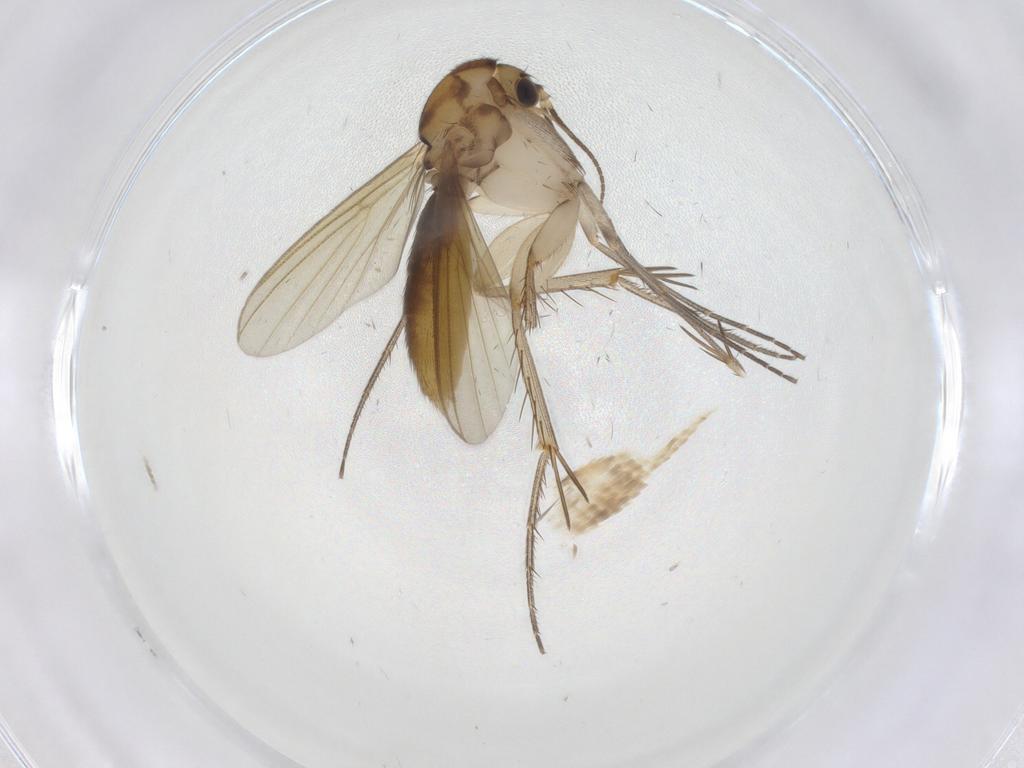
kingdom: Animalia
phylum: Arthropoda
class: Insecta
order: Diptera
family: Mycetophilidae
